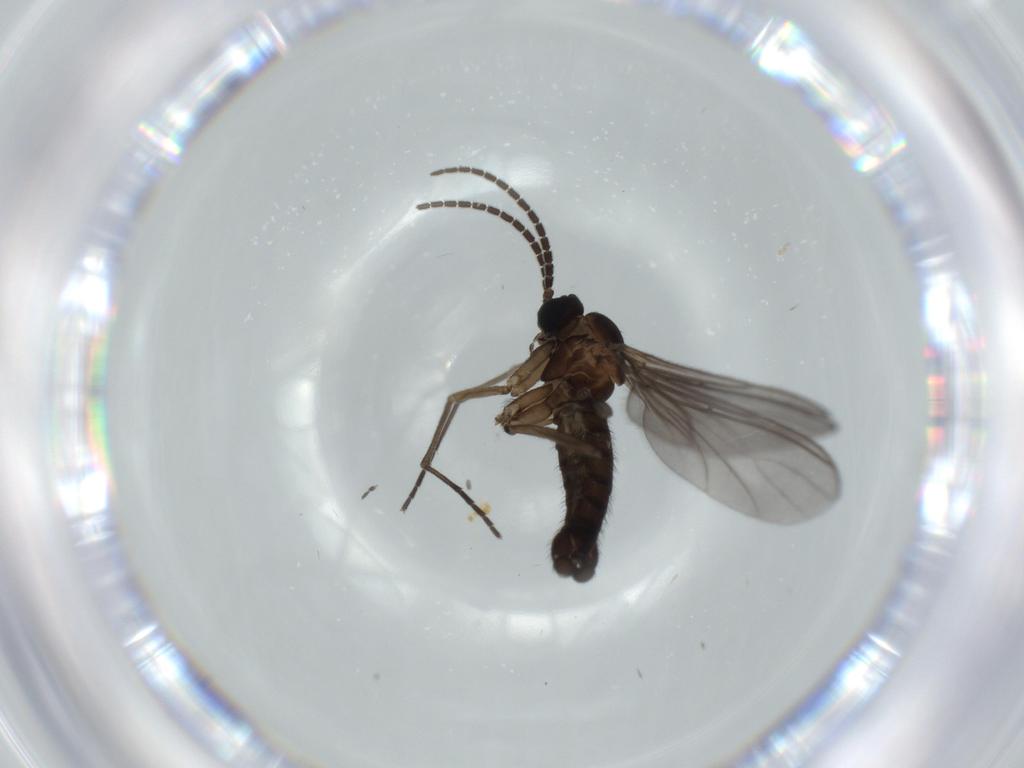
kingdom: Animalia
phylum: Arthropoda
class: Insecta
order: Diptera
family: Sciaridae
